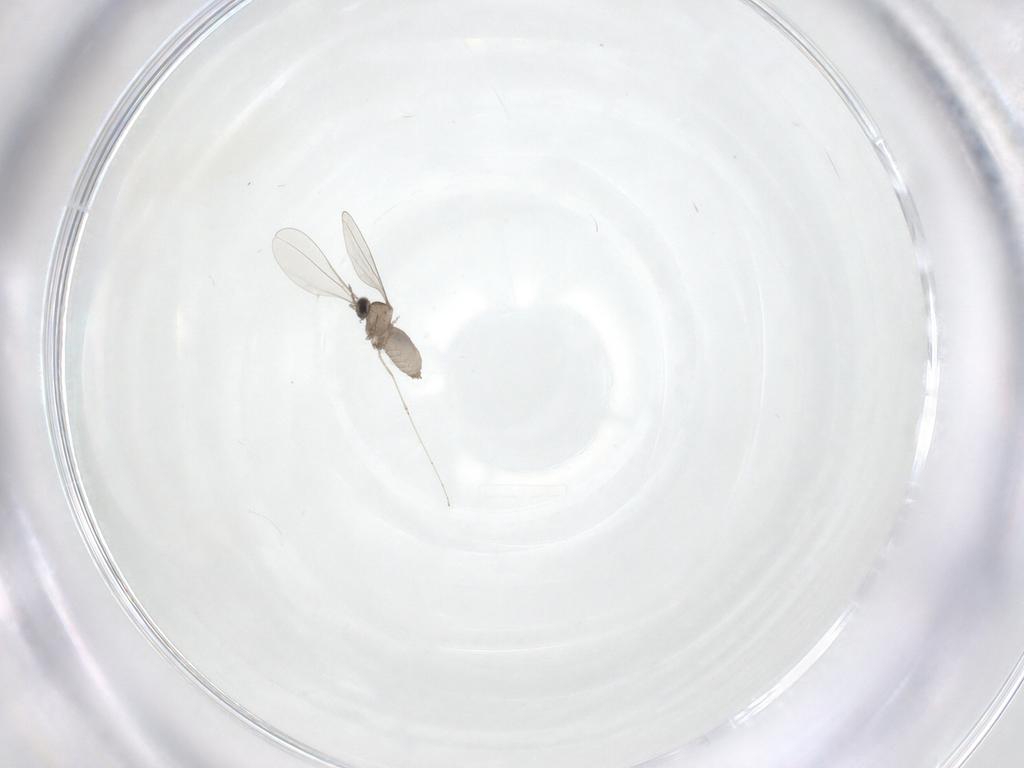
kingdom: Animalia
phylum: Arthropoda
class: Insecta
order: Diptera
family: Cecidomyiidae
